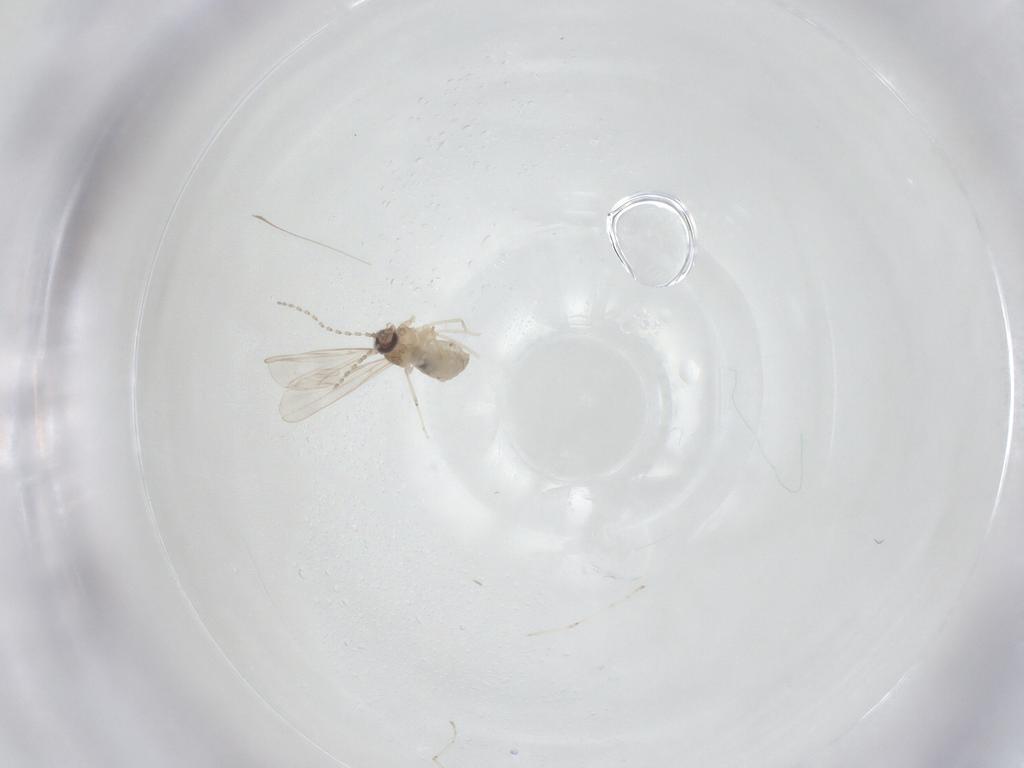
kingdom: Animalia
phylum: Arthropoda
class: Insecta
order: Diptera
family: Cecidomyiidae
